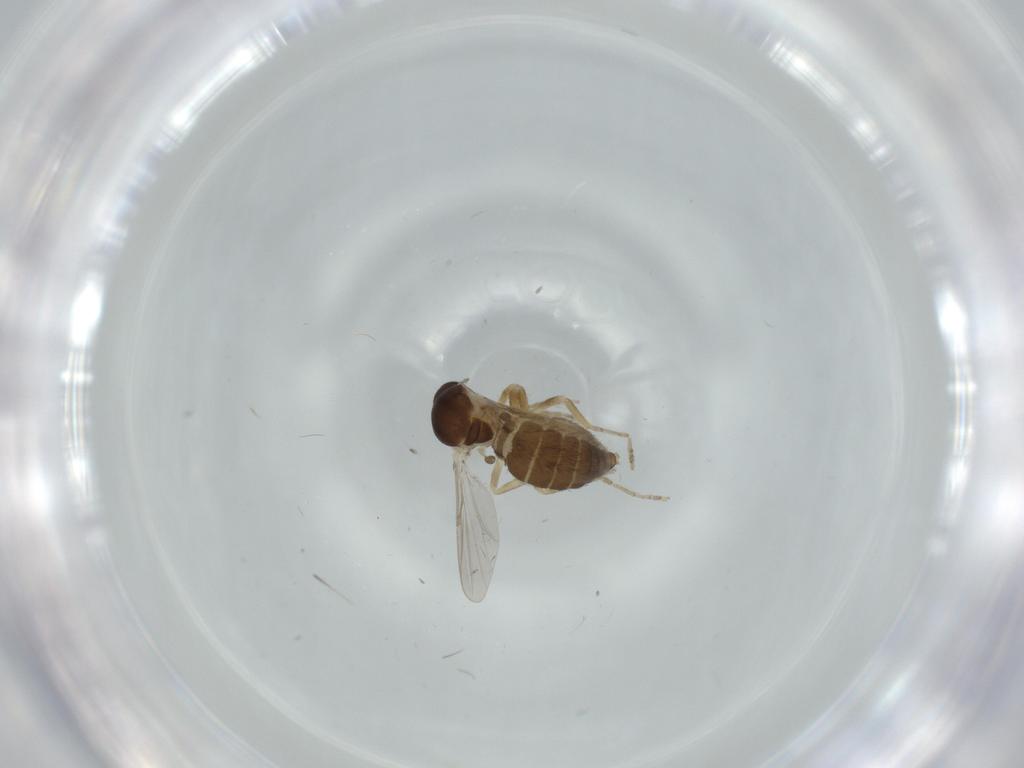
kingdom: Animalia
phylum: Arthropoda
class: Insecta
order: Diptera
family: Ceratopogonidae
